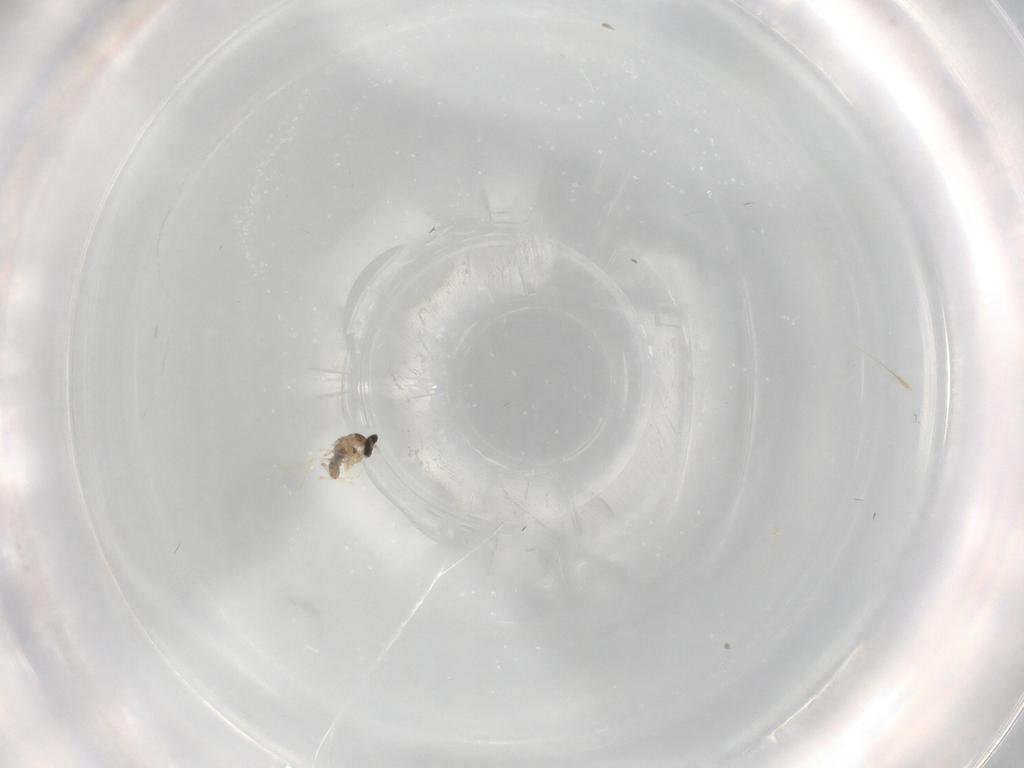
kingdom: Animalia
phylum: Arthropoda
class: Insecta
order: Diptera
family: Cecidomyiidae
